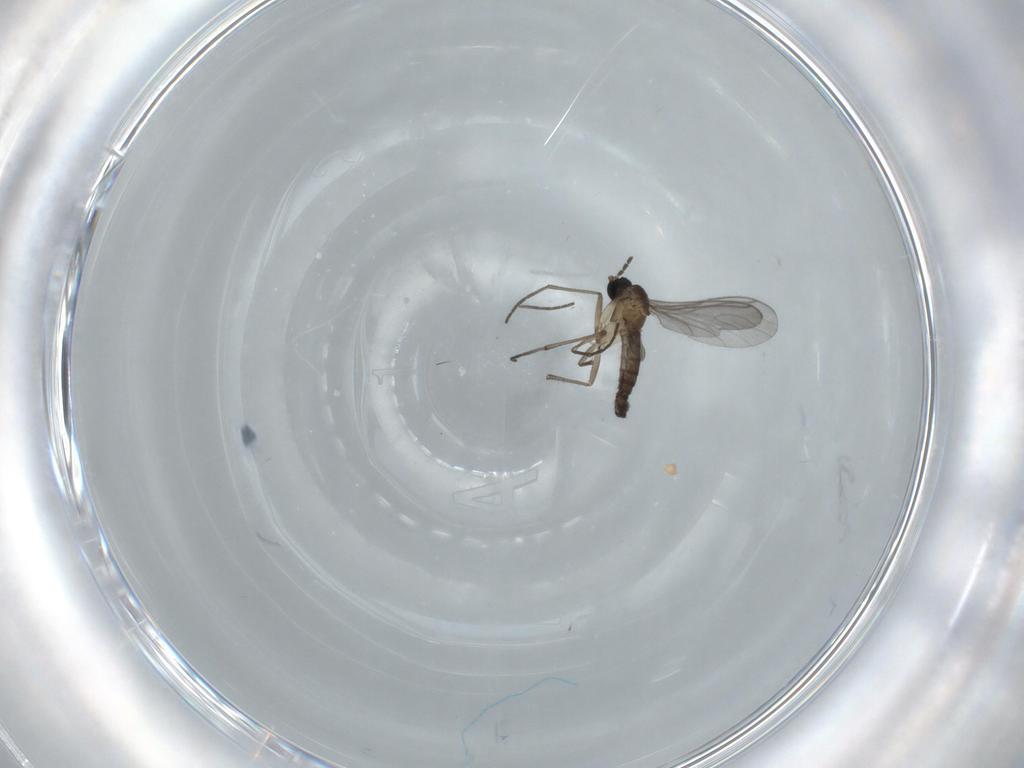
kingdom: Animalia
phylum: Arthropoda
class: Insecta
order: Diptera
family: Sciaridae
